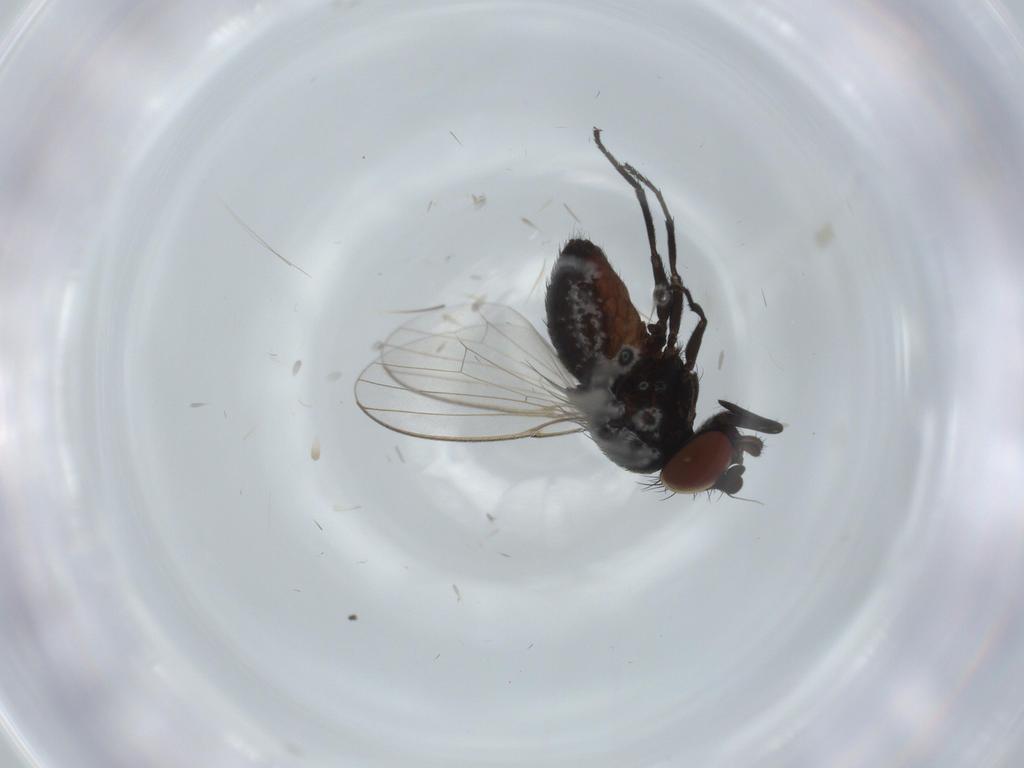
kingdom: Animalia
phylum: Arthropoda
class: Insecta
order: Diptera
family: Milichiidae
